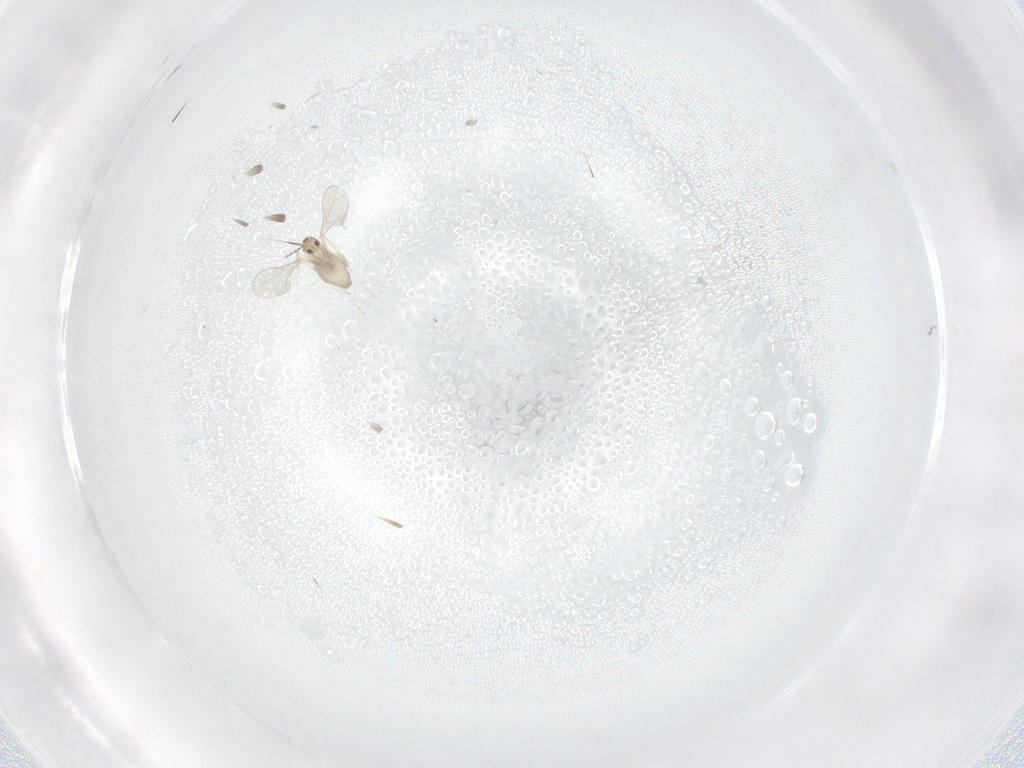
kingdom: Animalia
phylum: Arthropoda
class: Insecta
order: Diptera
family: Cecidomyiidae
